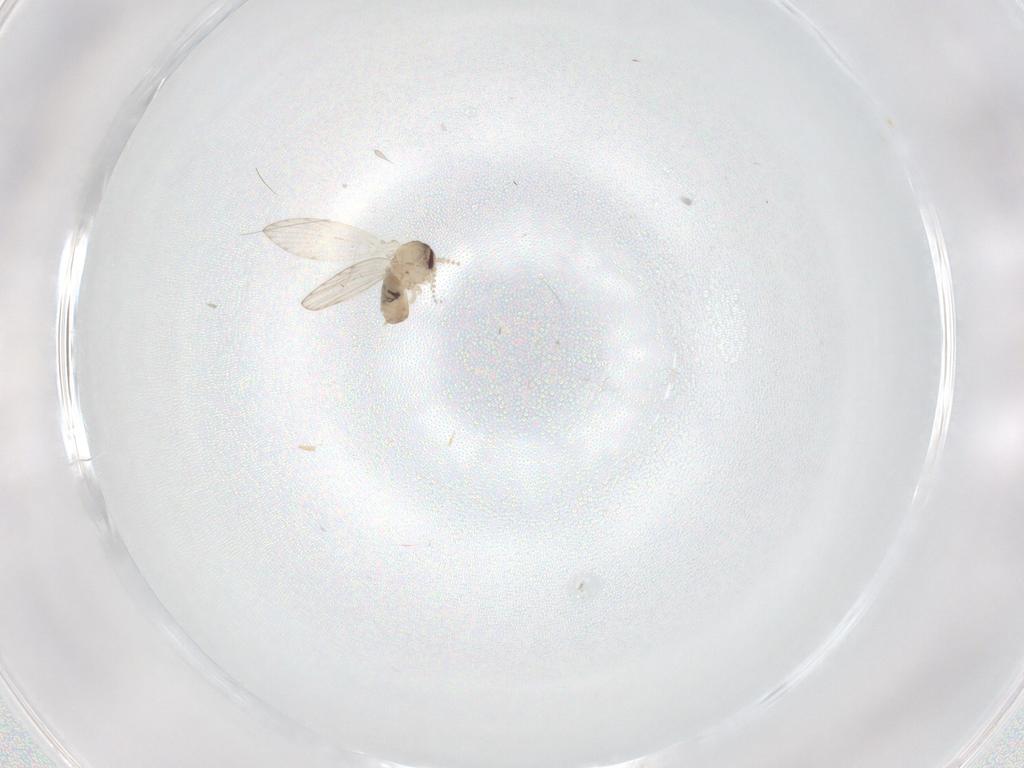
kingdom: Animalia
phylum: Arthropoda
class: Insecta
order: Diptera
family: Psychodidae
